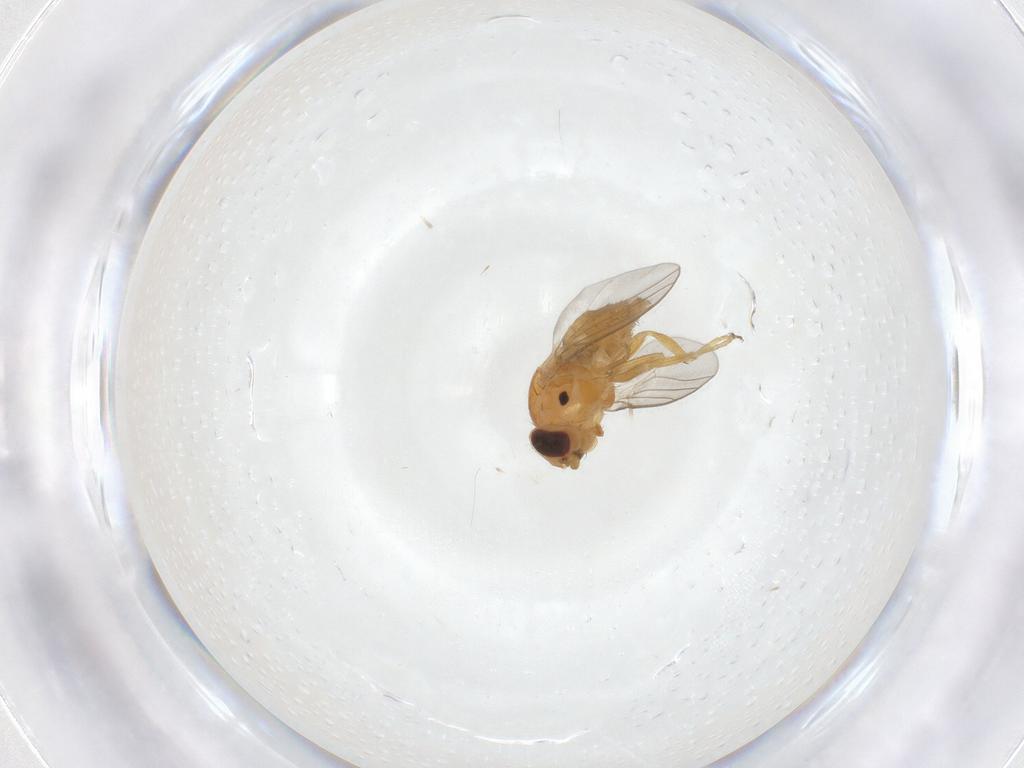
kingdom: Animalia
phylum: Arthropoda
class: Insecta
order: Diptera
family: Chloropidae
